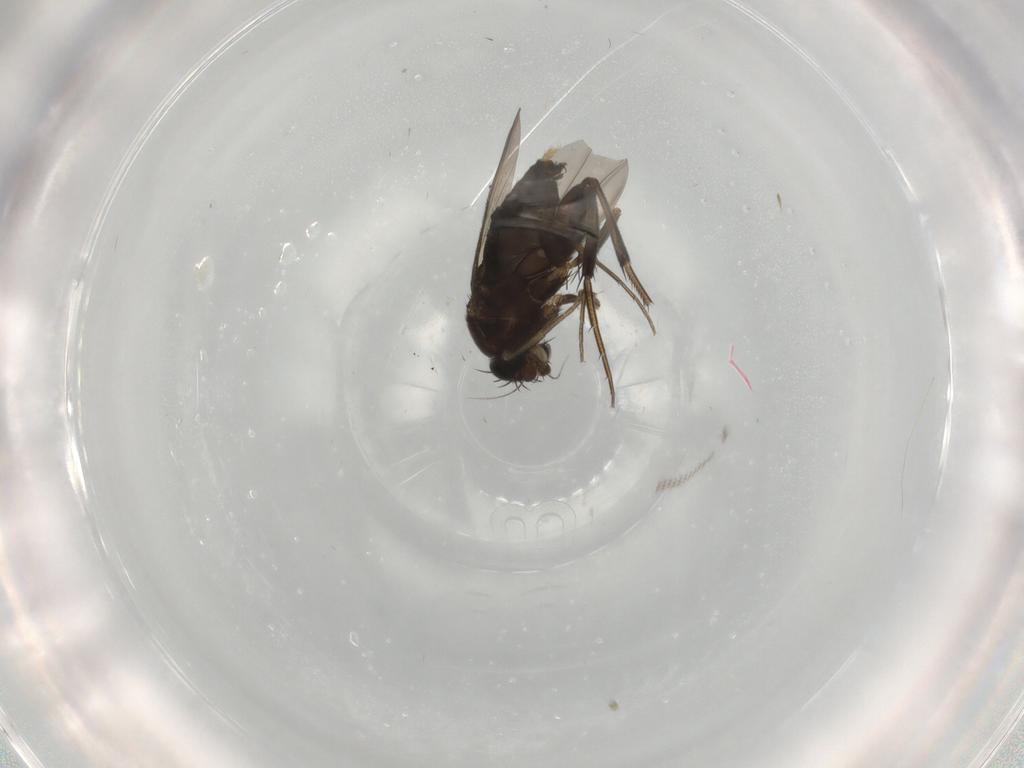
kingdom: Animalia
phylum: Arthropoda
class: Insecta
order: Diptera
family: Phoridae
